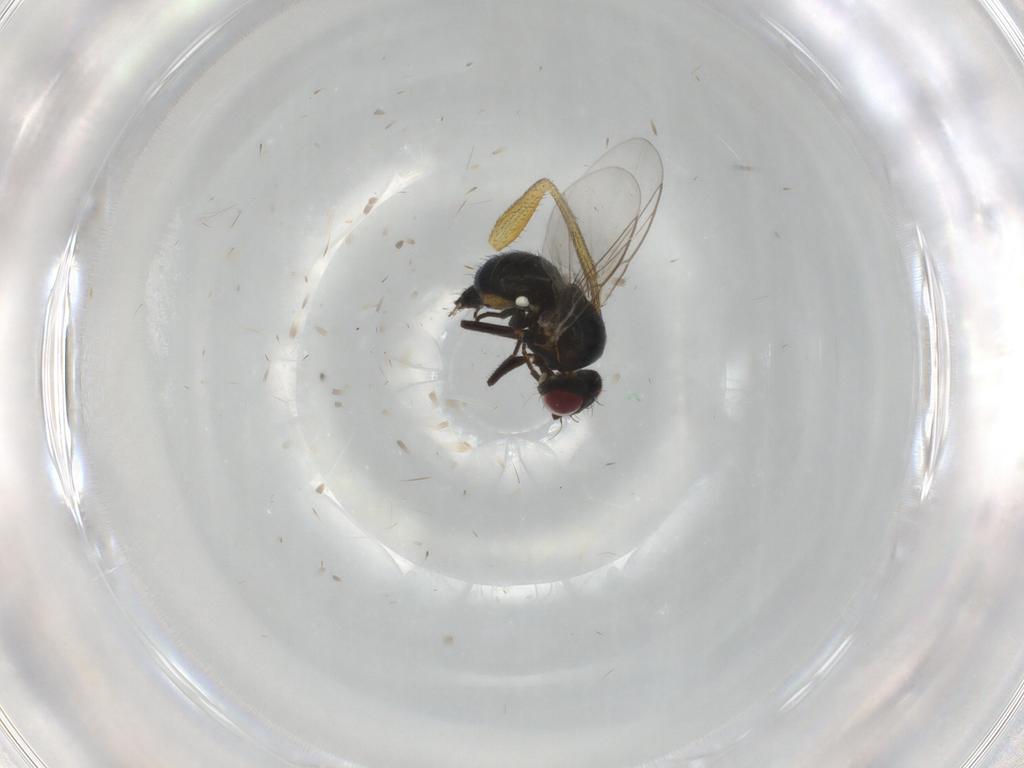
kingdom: Animalia
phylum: Arthropoda
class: Insecta
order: Diptera
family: Muscidae
